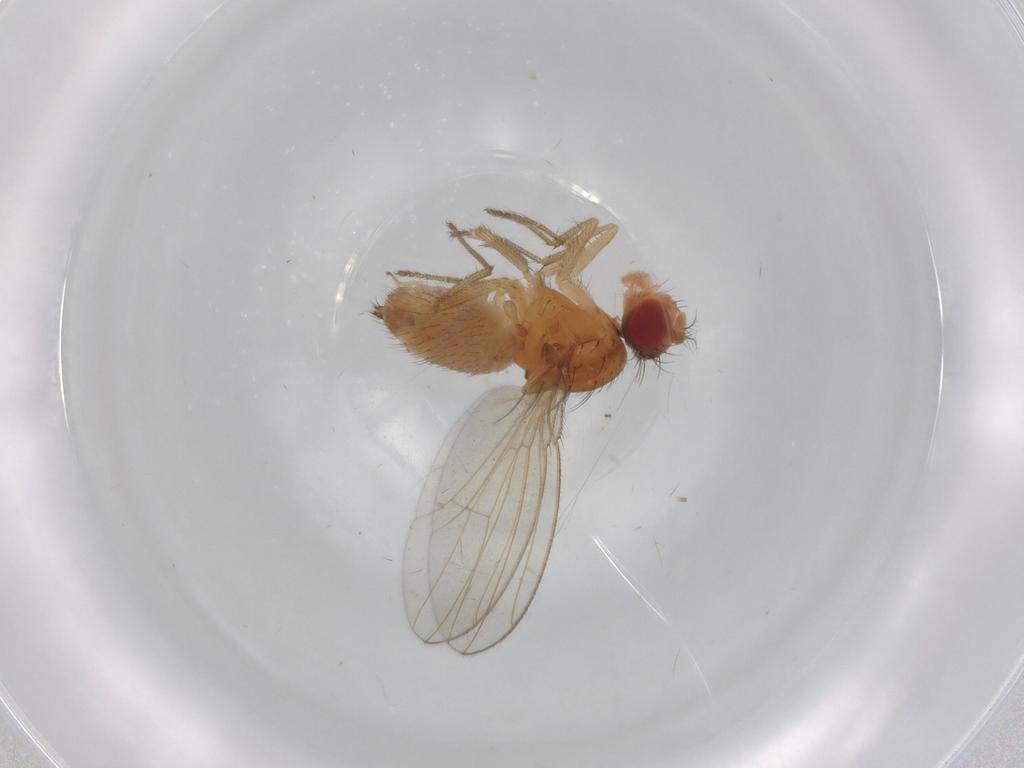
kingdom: Animalia
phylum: Arthropoda
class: Insecta
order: Diptera
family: Drosophilidae
